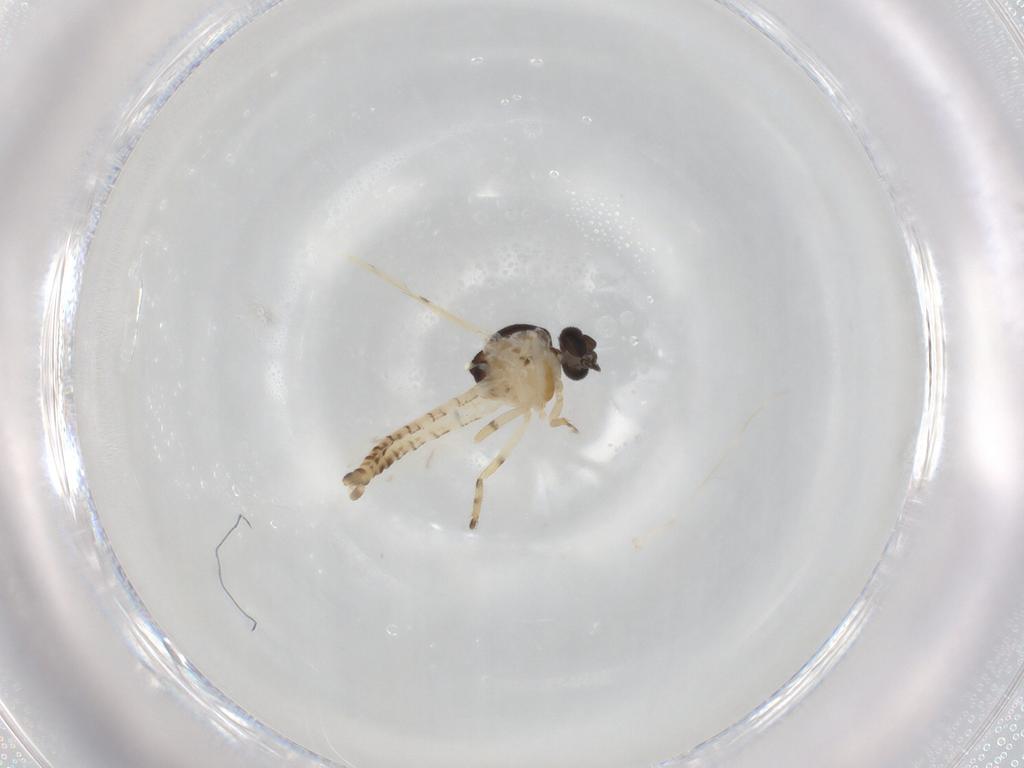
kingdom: Animalia
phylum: Arthropoda
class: Insecta
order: Diptera
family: Ceratopogonidae
